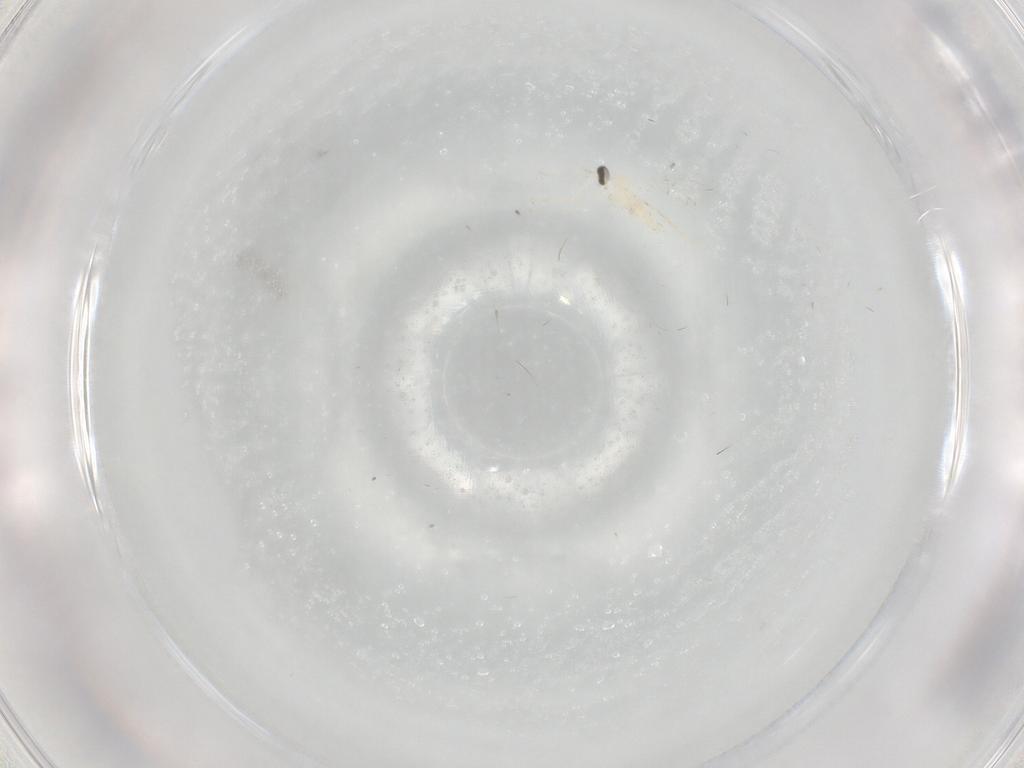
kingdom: Animalia
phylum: Arthropoda
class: Insecta
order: Diptera
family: Cecidomyiidae
